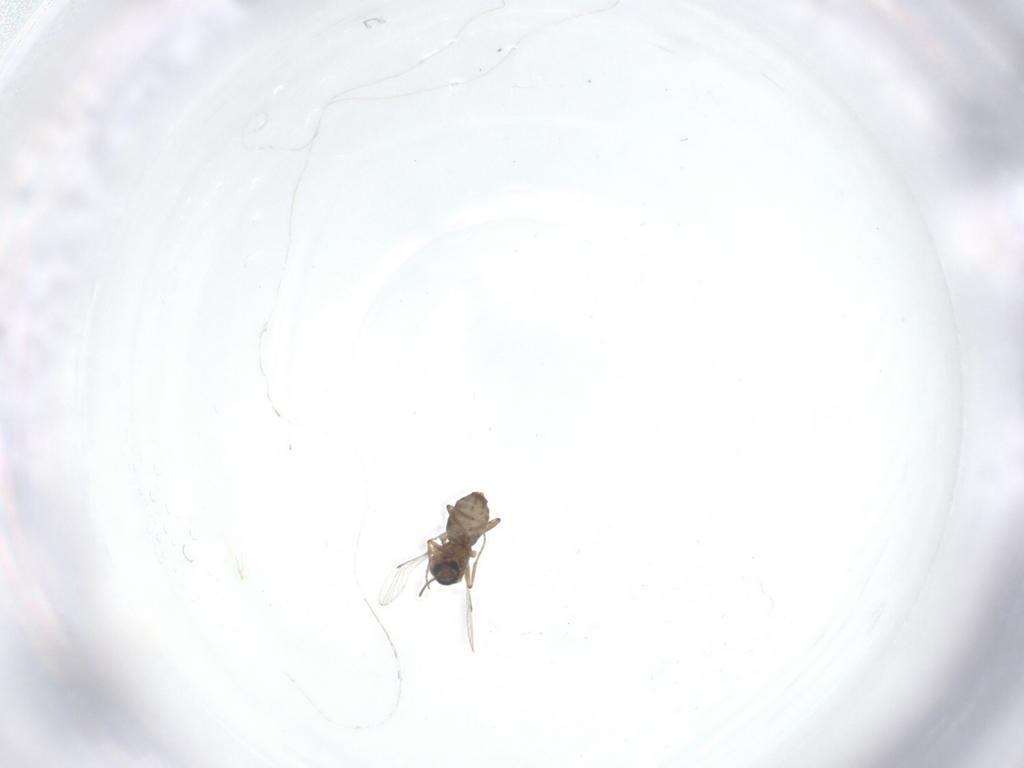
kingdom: Animalia
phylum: Arthropoda
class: Insecta
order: Diptera
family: Ceratopogonidae
